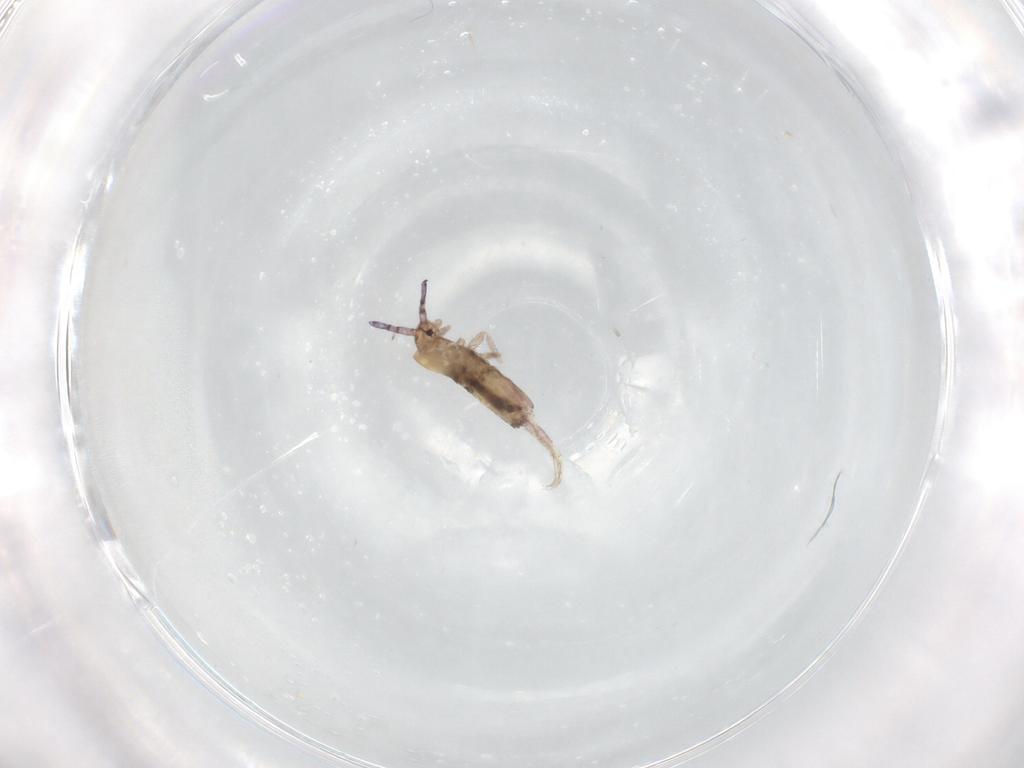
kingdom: Animalia
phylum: Arthropoda
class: Collembola
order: Entomobryomorpha
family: Entomobryidae
